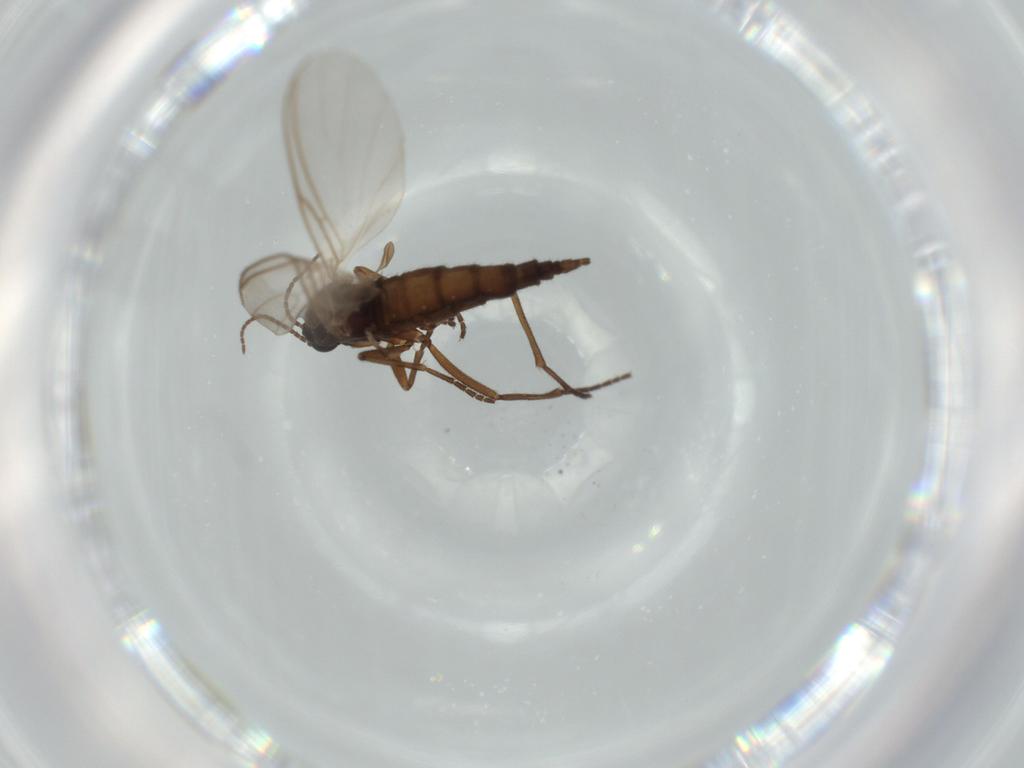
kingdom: Animalia
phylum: Arthropoda
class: Insecta
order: Diptera
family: Sciaridae
